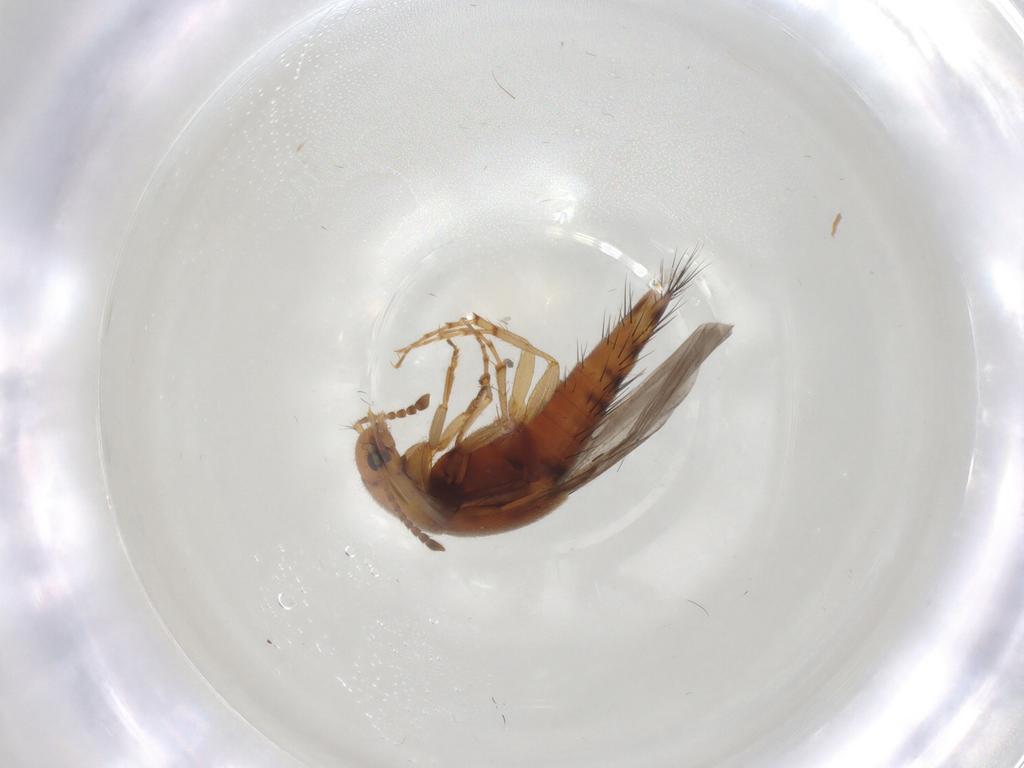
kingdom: Animalia
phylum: Arthropoda
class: Insecta
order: Coleoptera
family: Staphylinidae
